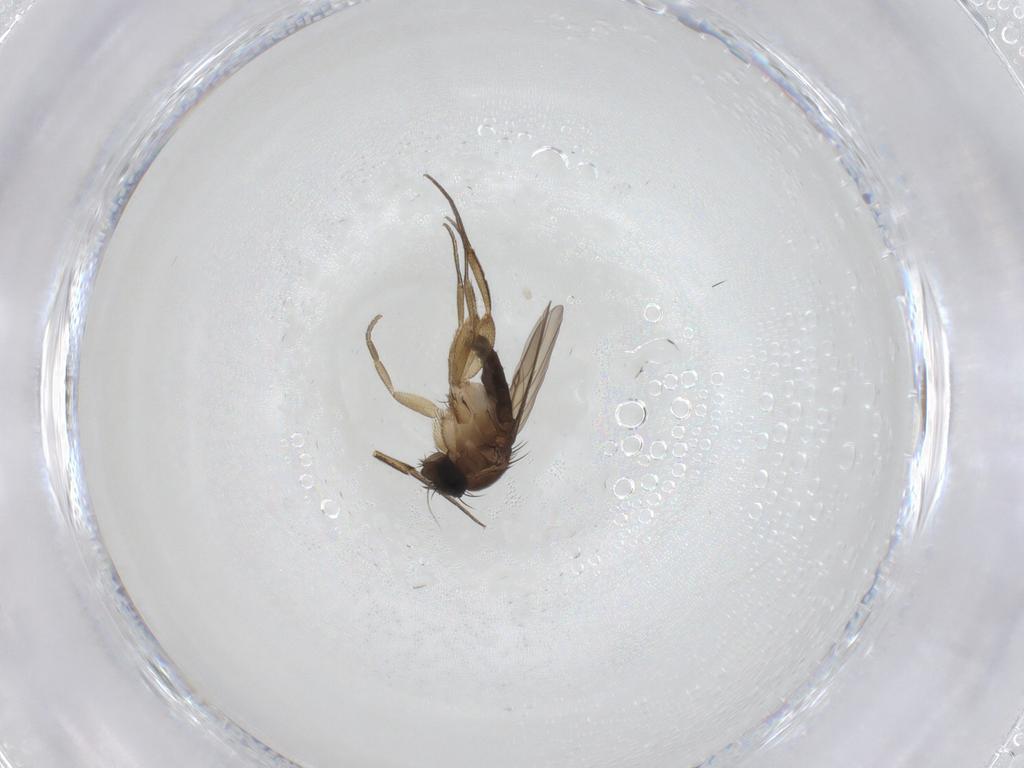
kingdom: Animalia
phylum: Arthropoda
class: Insecta
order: Diptera
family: Phoridae
